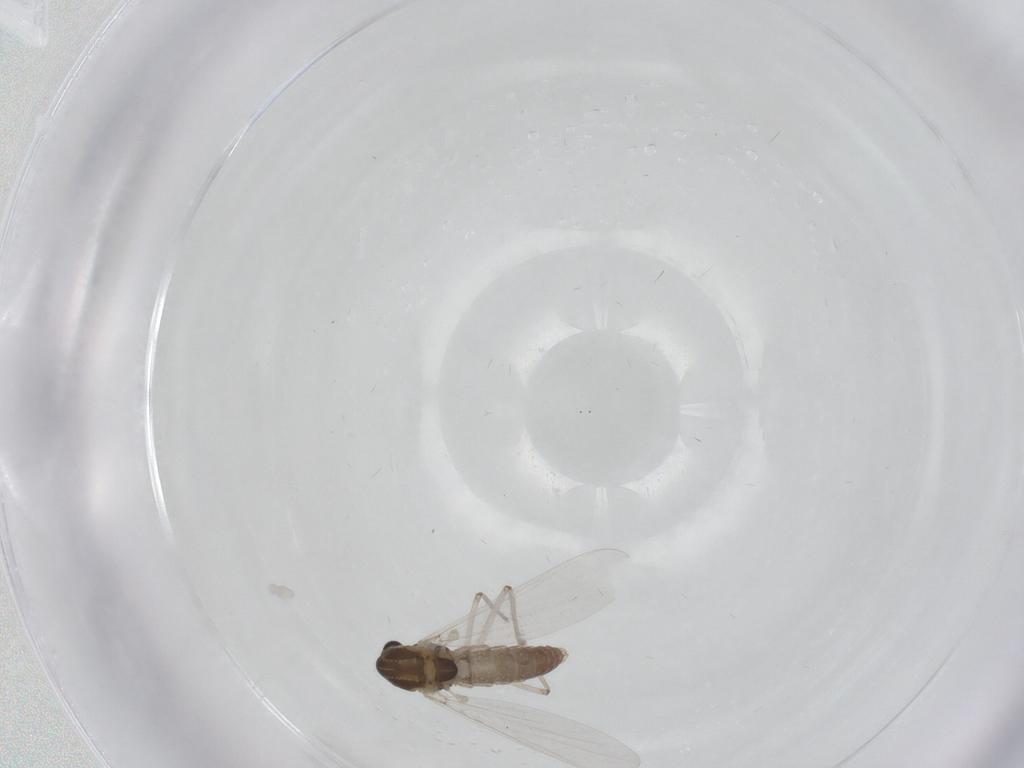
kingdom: Animalia
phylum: Arthropoda
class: Insecta
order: Diptera
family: Chironomidae
